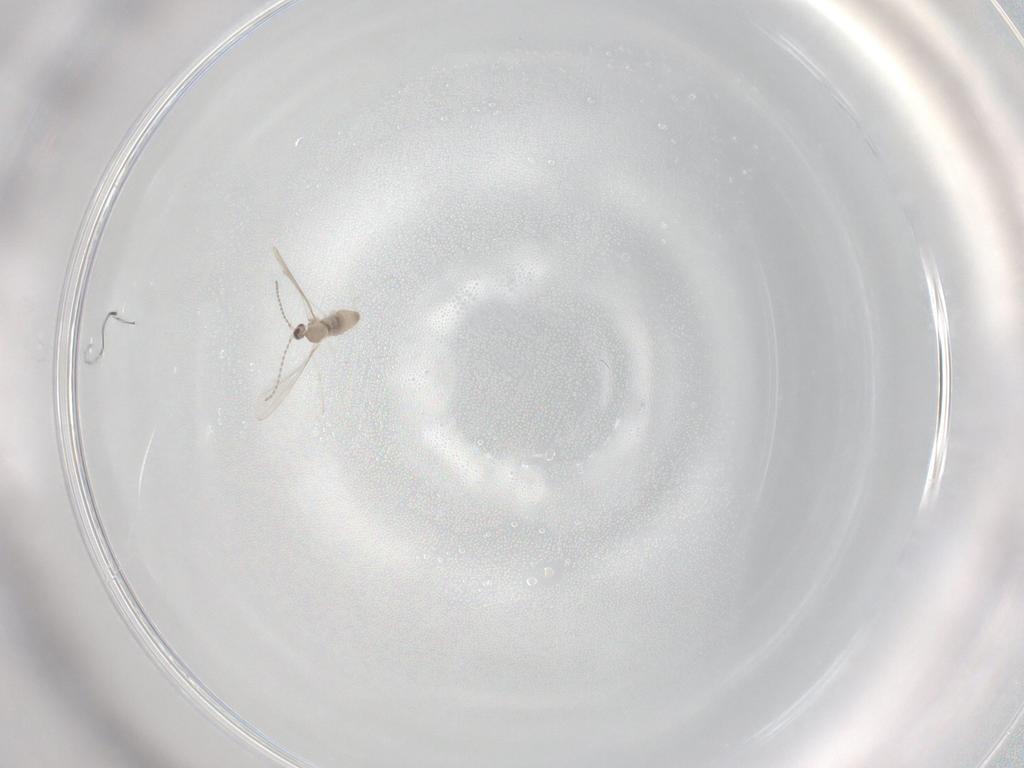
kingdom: Animalia
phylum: Arthropoda
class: Insecta
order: Diptera
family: Cecidomyiidae
